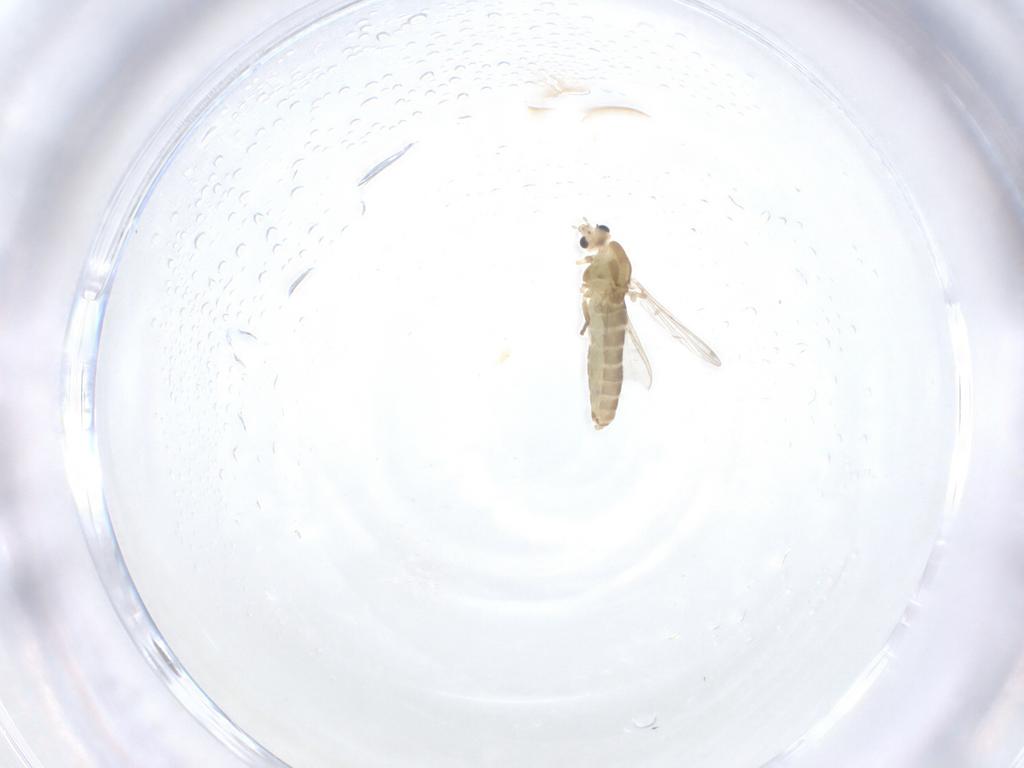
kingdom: Animalia
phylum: Arthropoda
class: Insecta
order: Diptera
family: Chironomidae
